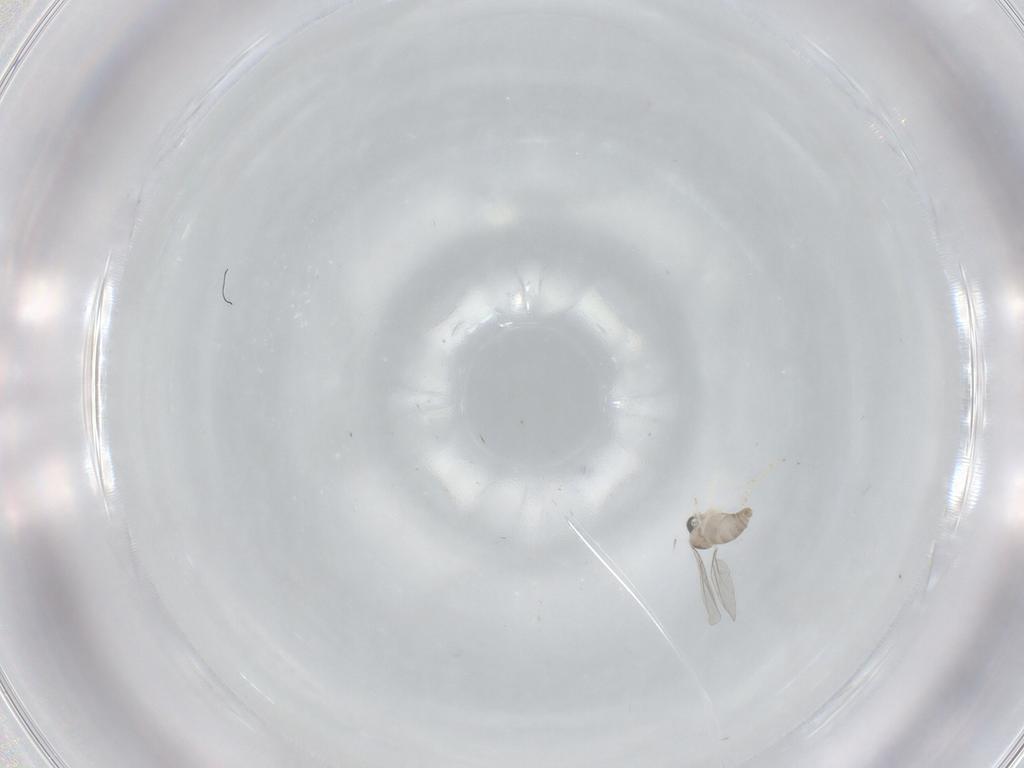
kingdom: Animalia
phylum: Arthropoda
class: Insecta
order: Diptera
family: Cecidomyiidae
